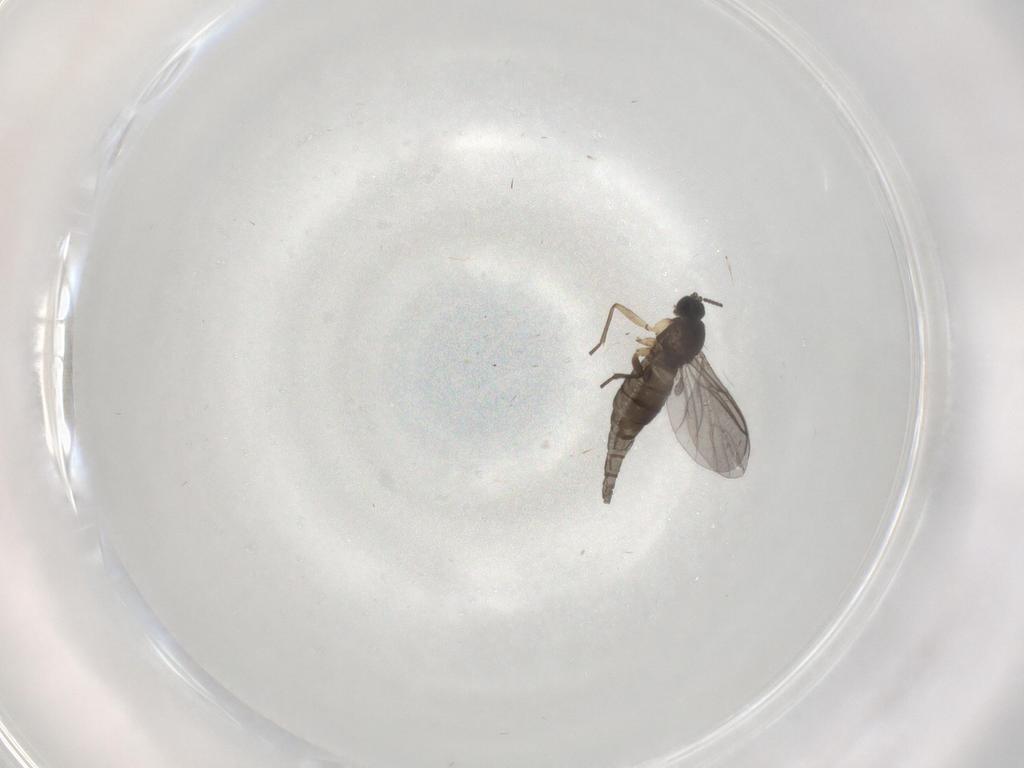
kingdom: Animalia
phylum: Arthropoda
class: Insecta
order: Diptera
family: Sciaridae
